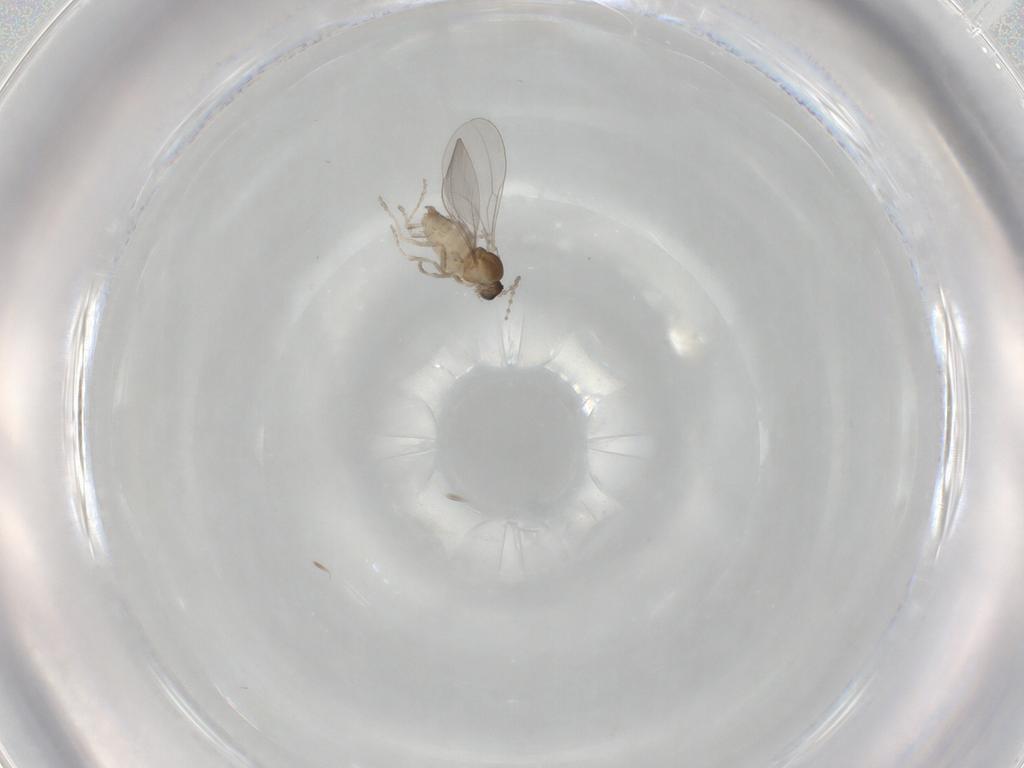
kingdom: Animalia
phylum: Arthropoda
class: Insecta
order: Diptera
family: Cecidomyiidae
